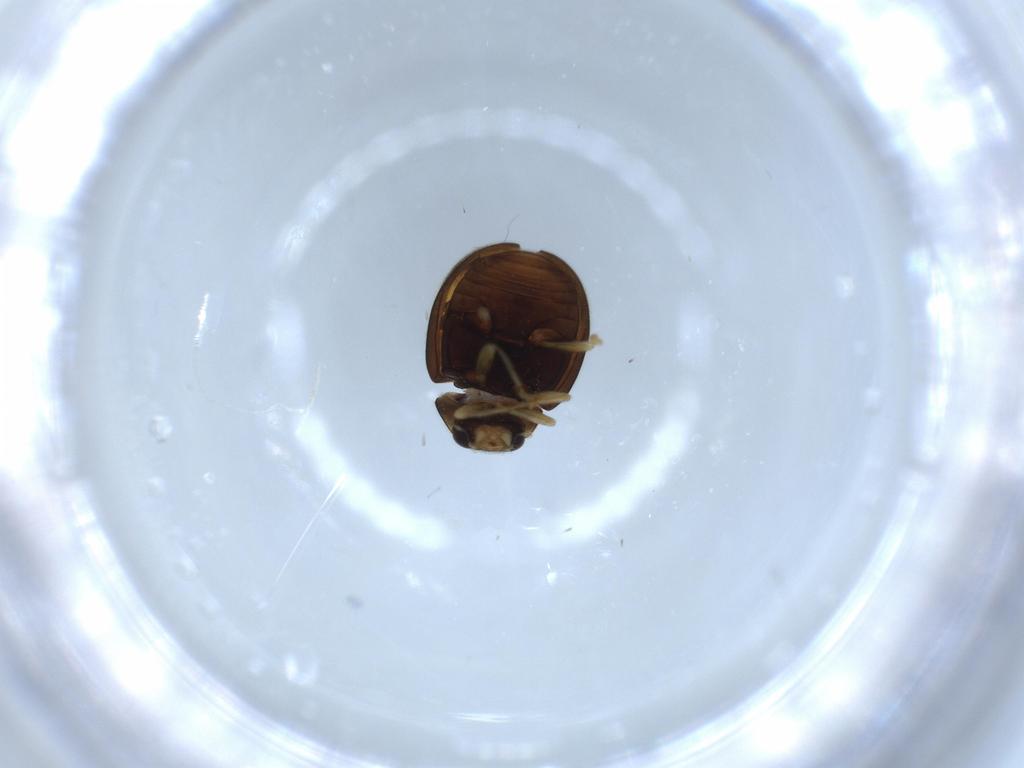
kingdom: Animalia
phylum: Arthropoda
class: Insecta
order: Coleoptera
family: Coccinellidae
